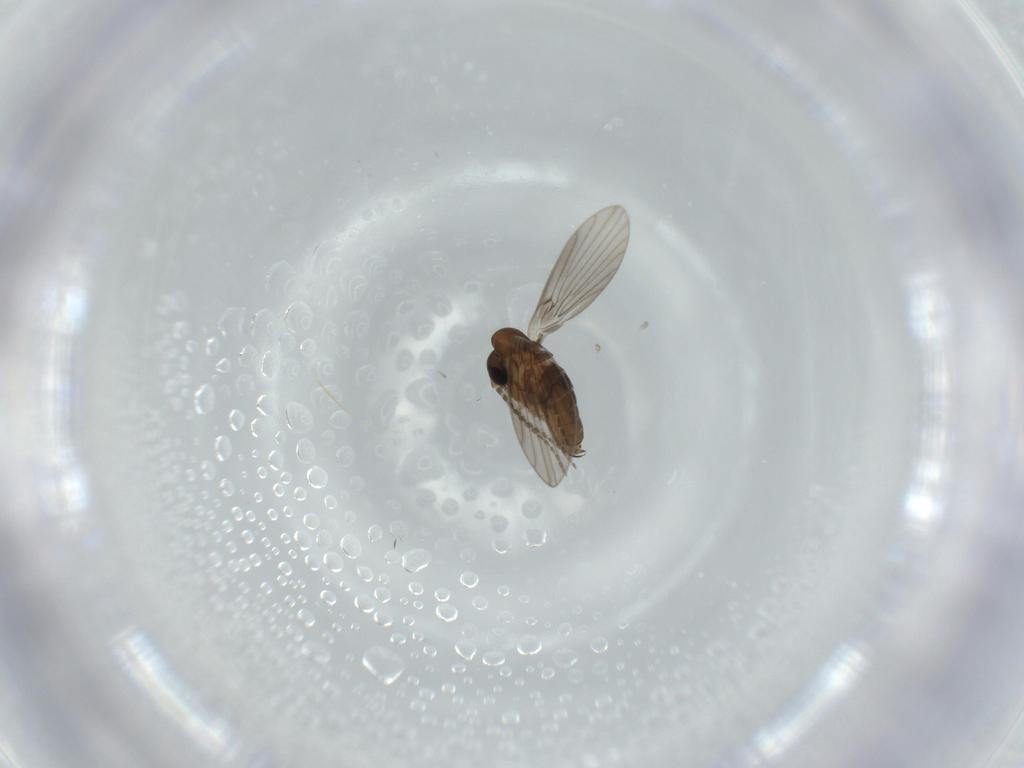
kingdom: Animalia
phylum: Arthropoda
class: Insecta
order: Diptera
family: Psychodidae
